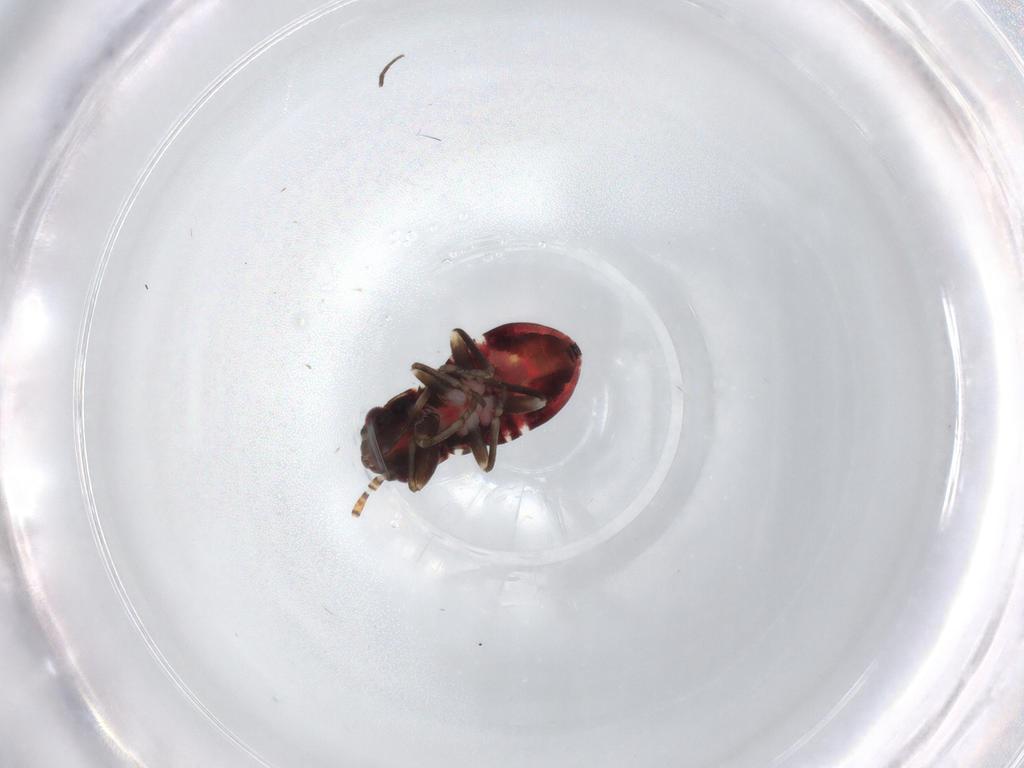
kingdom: Animalia
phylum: Arthropoda
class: Insecta
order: Hemiptera
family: Rhyparochromidae
